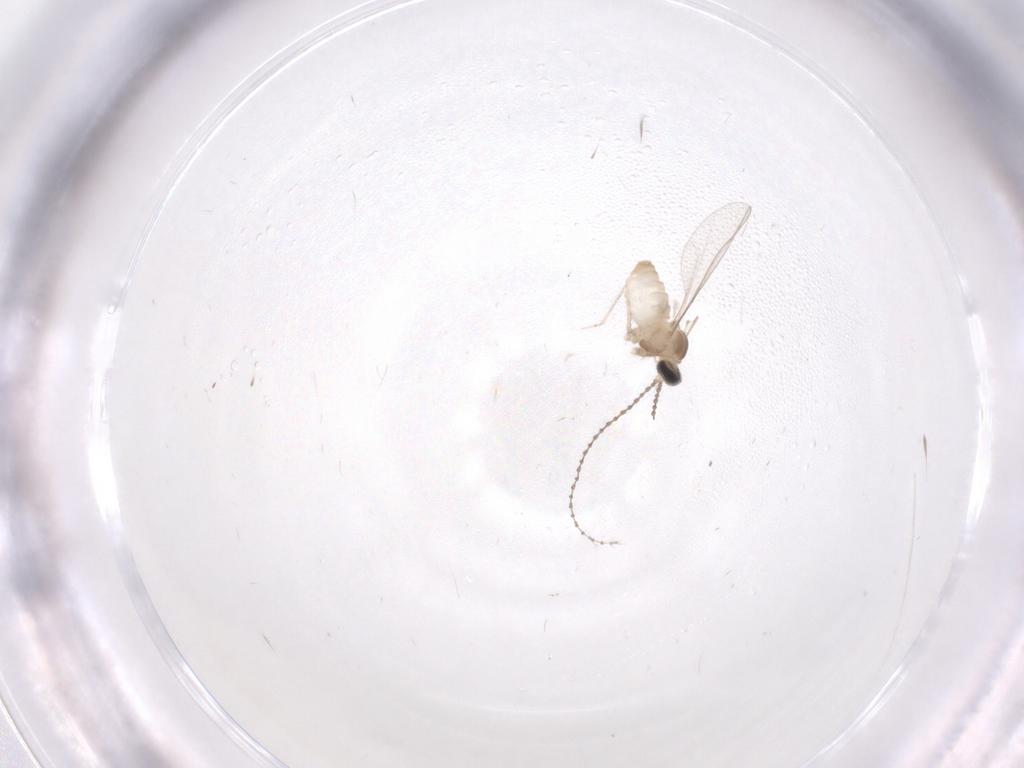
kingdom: Animalia
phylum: Arthropoda
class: Insecta
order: Diptera
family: Cecidomyiidae
